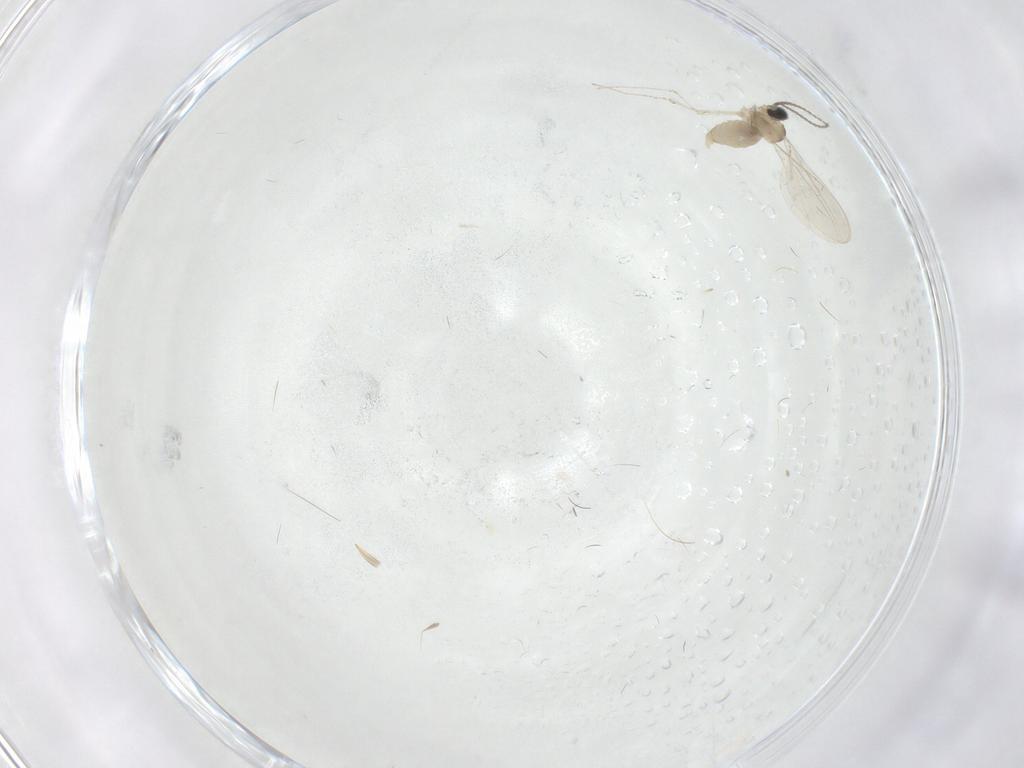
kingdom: Animalia
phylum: Arthropoda
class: Insecta
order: Diptera
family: Cecidomyiidae
